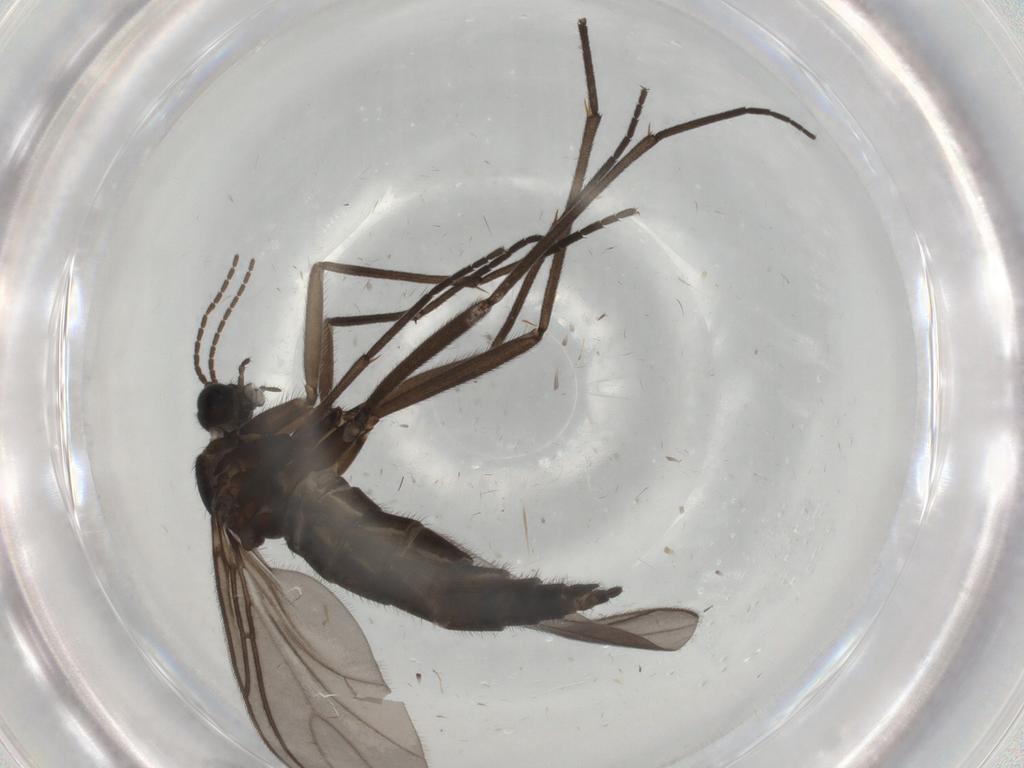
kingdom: Animalia
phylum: Arthropoda
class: Insecta
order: Diptera
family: Sciaridae
